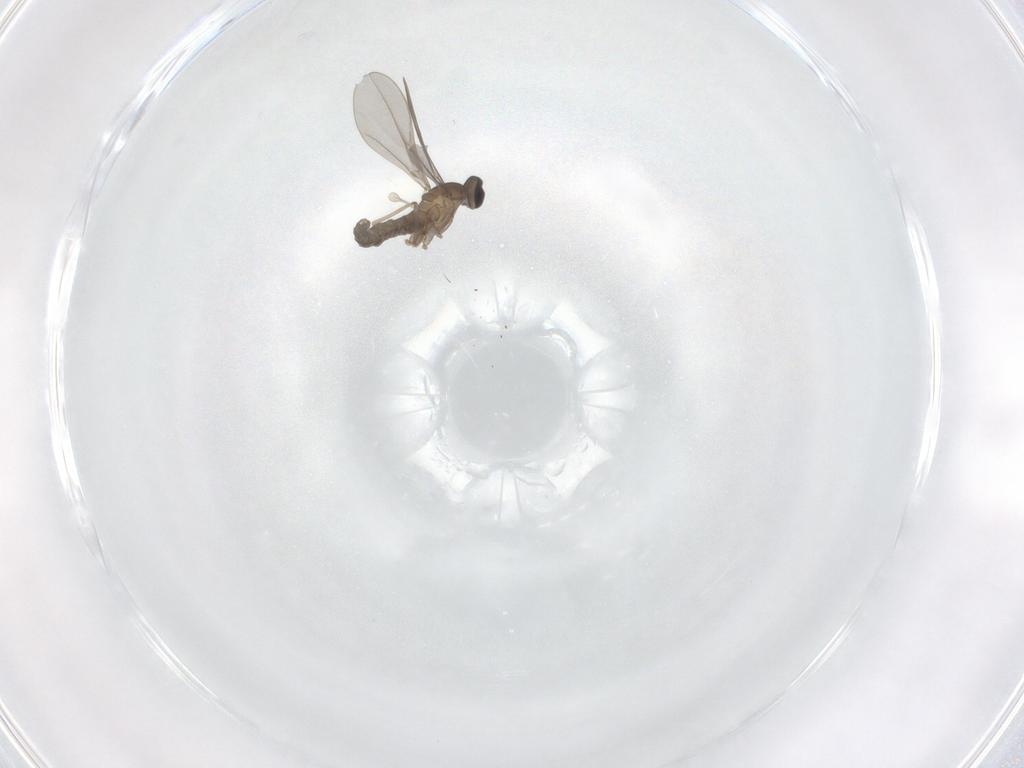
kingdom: Animalia
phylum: Arthropoda
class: Insecta
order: Diptera
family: Cecidomyiidae
